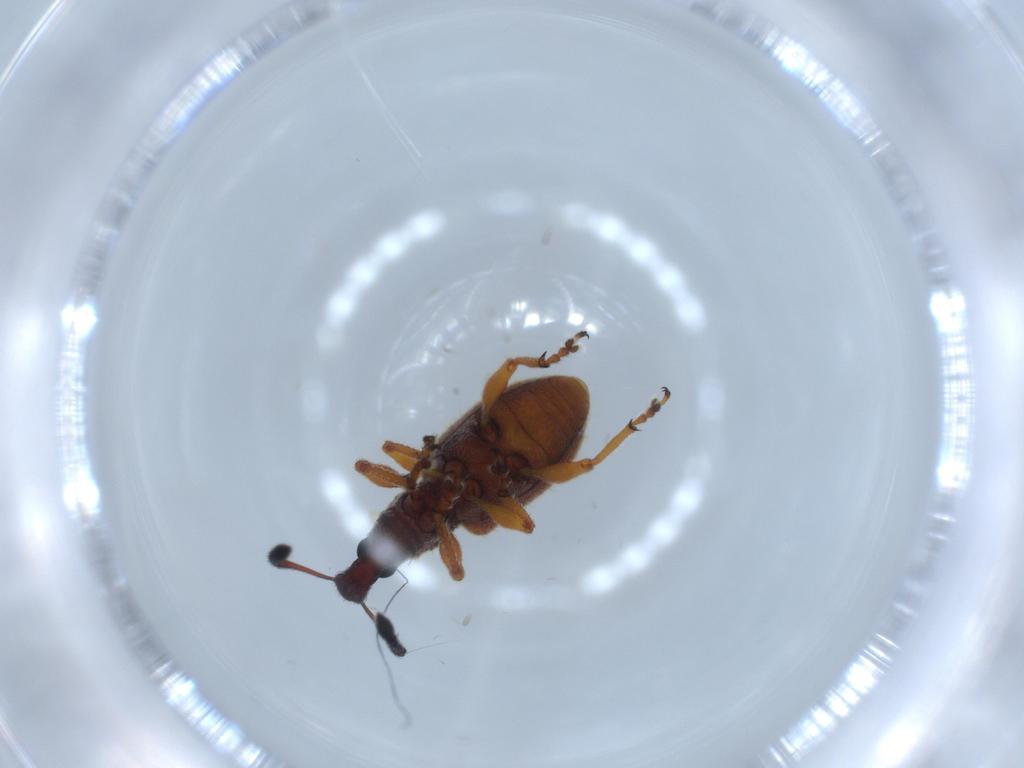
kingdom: Animalia
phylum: Arthropoda
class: Insecta
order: Coleoptera
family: Curculionidae
